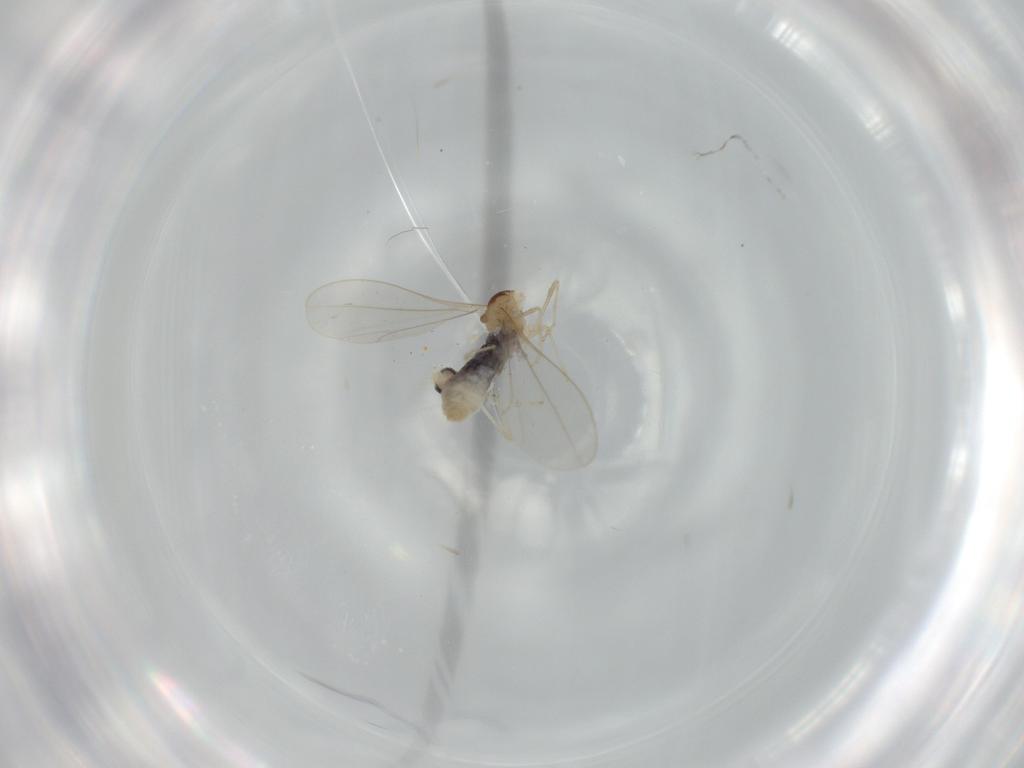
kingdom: Animalia
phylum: Arthropoda
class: Insecta
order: Diptera
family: Cecidomyiidae
